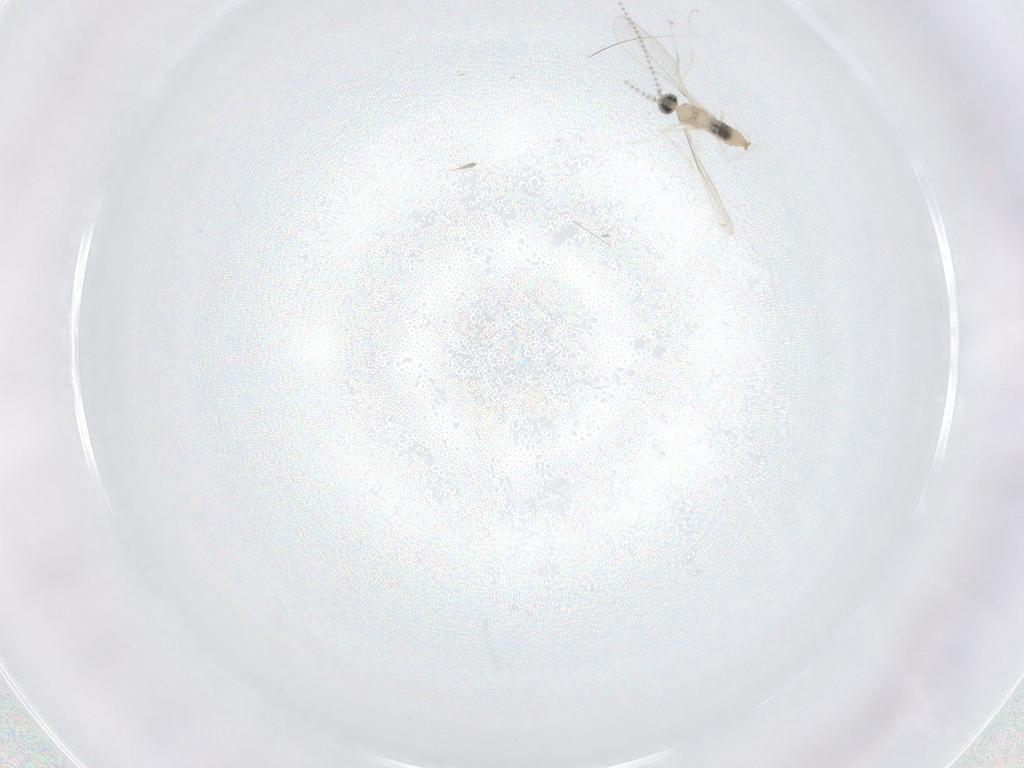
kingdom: Animalia
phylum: Arthropoda
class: Insecta
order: Diptera
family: Cecidomyiidae
